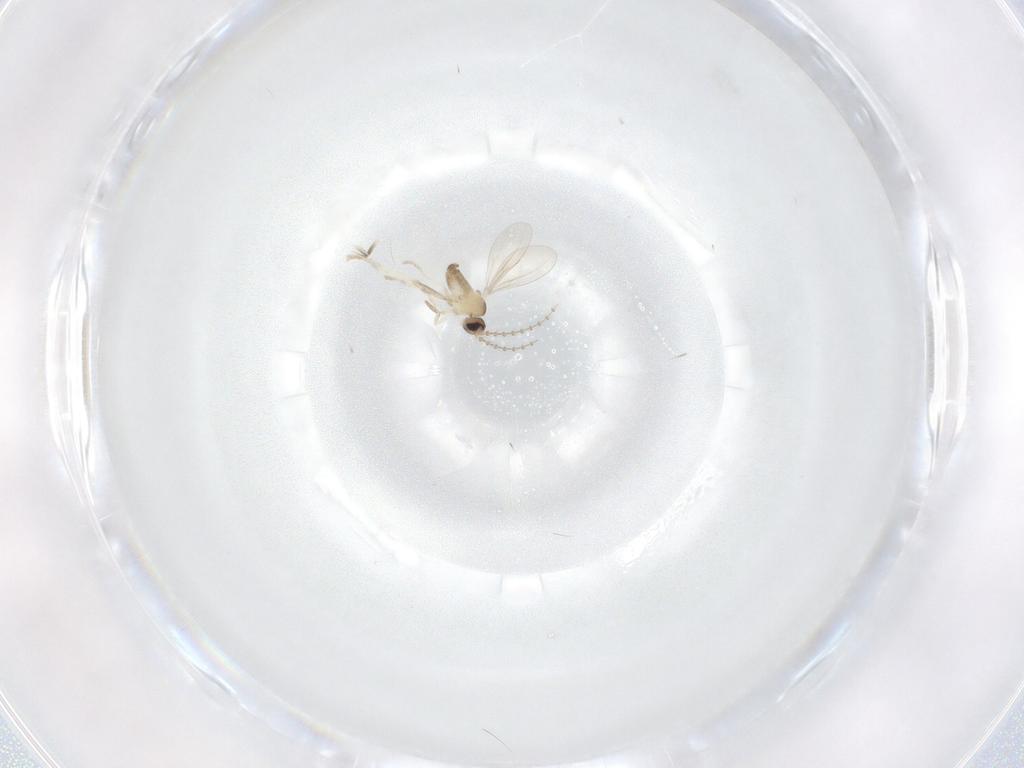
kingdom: Animalia
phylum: Arthropoda
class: Insecta
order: Diptera
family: Cecidomyiidae
